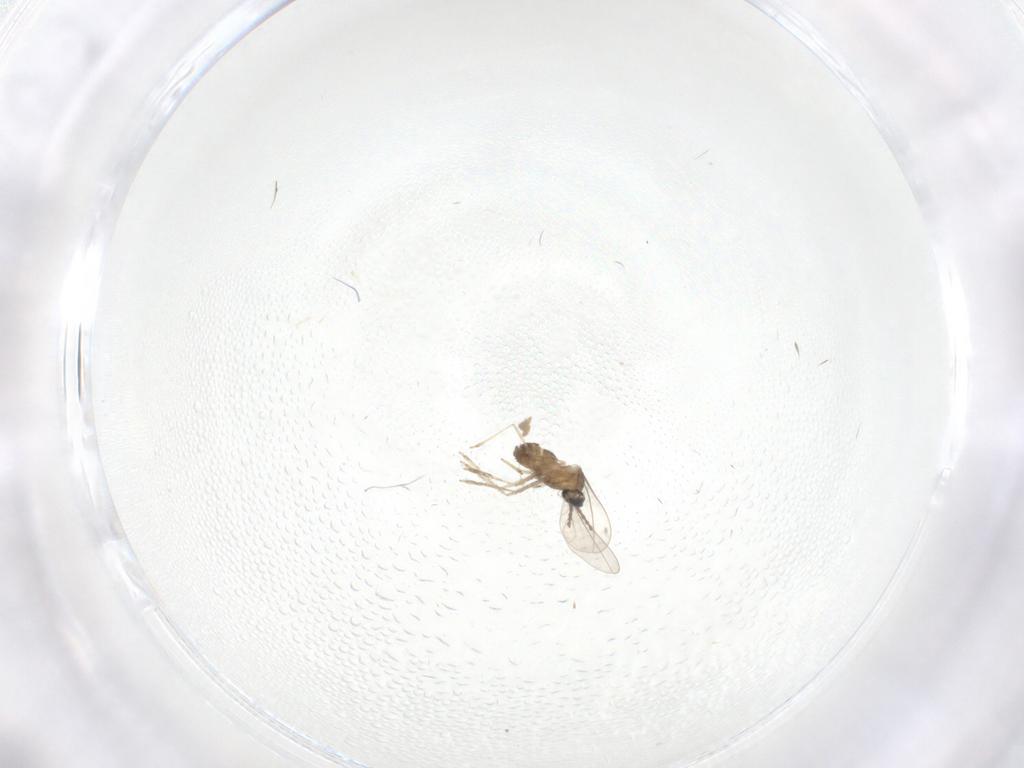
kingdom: Animalia
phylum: Arthropoda
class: Insecta
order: Diptera
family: Cecidomyiidae
